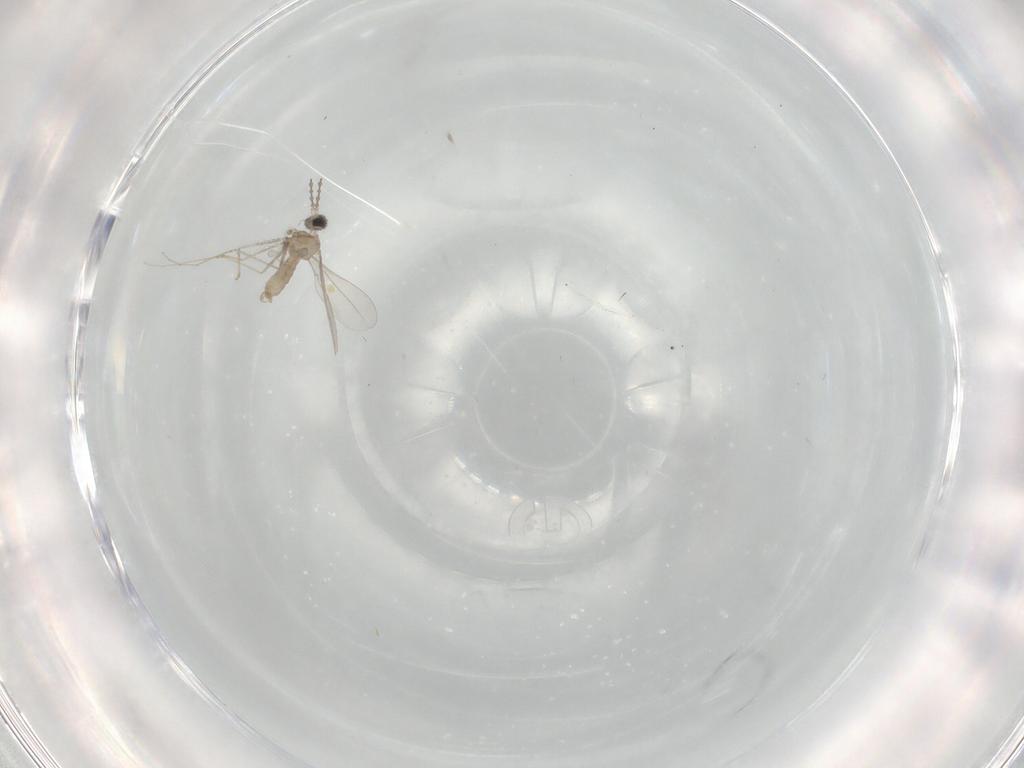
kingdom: Animalia
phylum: Arthropoda
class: Insecta
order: Diptera
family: Cecidomyiidae
